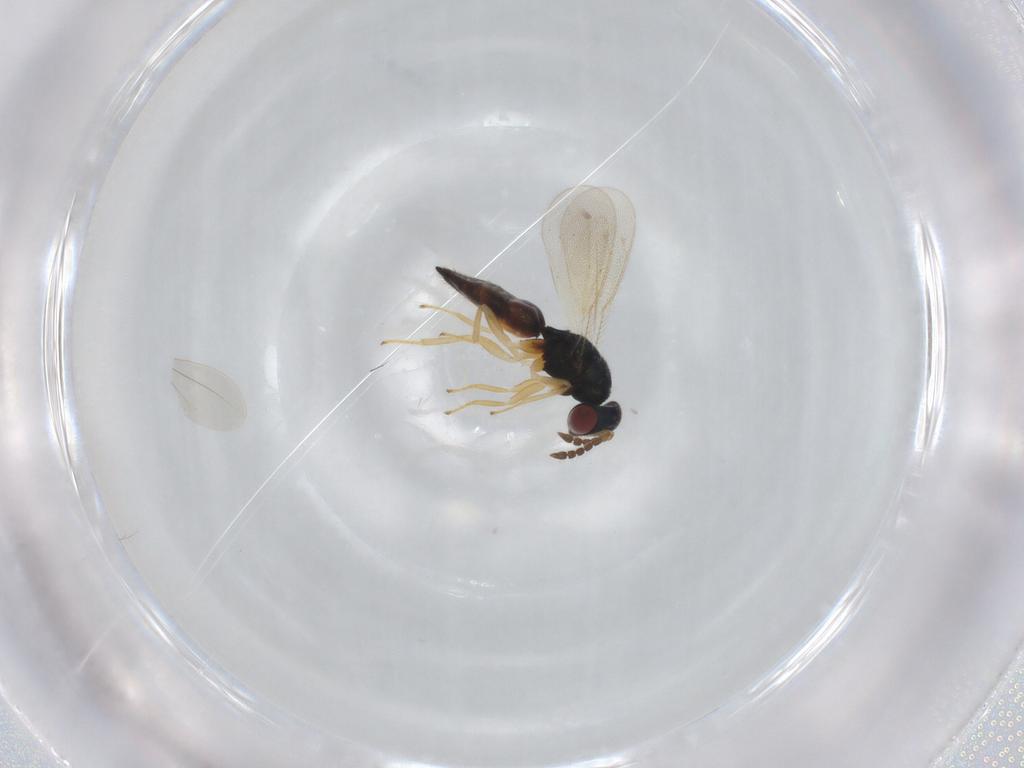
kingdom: Animalia
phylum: Arthropoda
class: Insecta
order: Hymenoptera
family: Eulophidae
